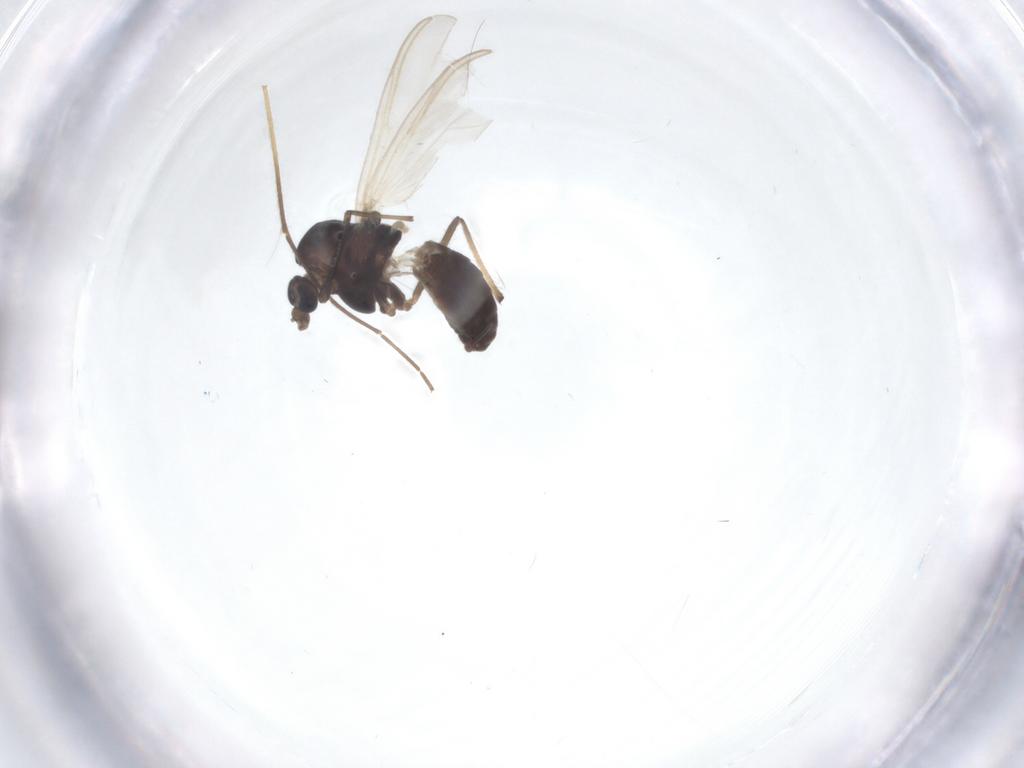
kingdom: Animalia
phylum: Arthropoda
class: Insecta
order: Diptera
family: Chironomidae
